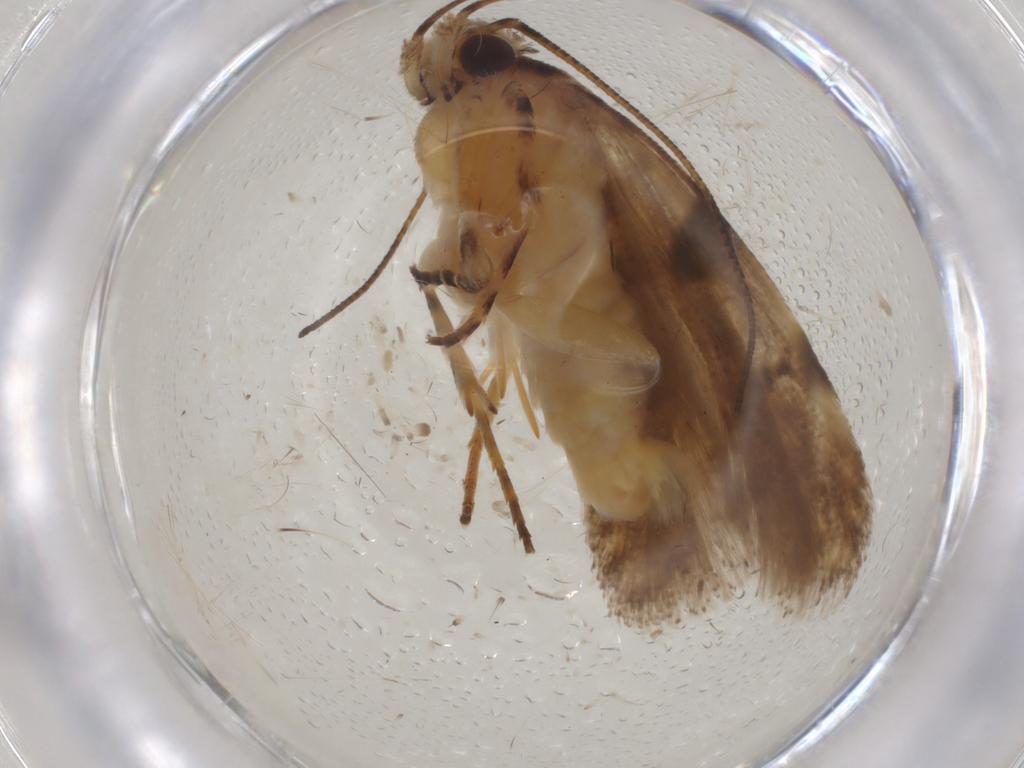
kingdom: Animalia
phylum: Arthropoda
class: Insecta
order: Lepidoptera
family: Gelechiidae
